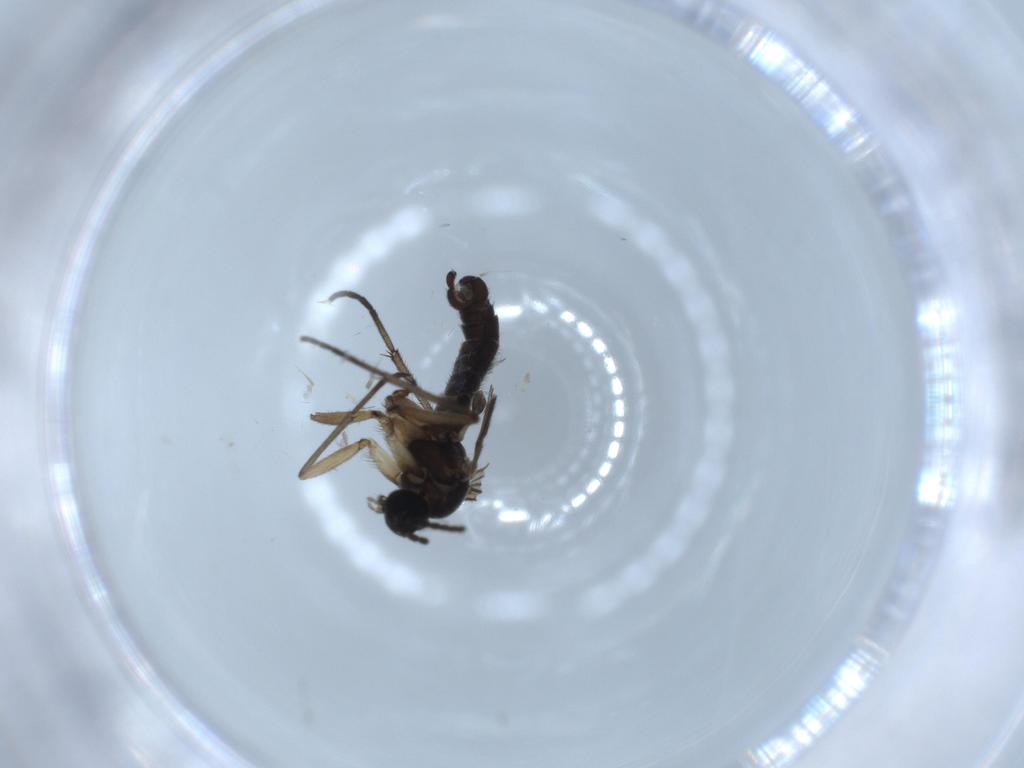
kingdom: Animalia
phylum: Arthropoda
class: Insecta
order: Diptera
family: Sciaridae
